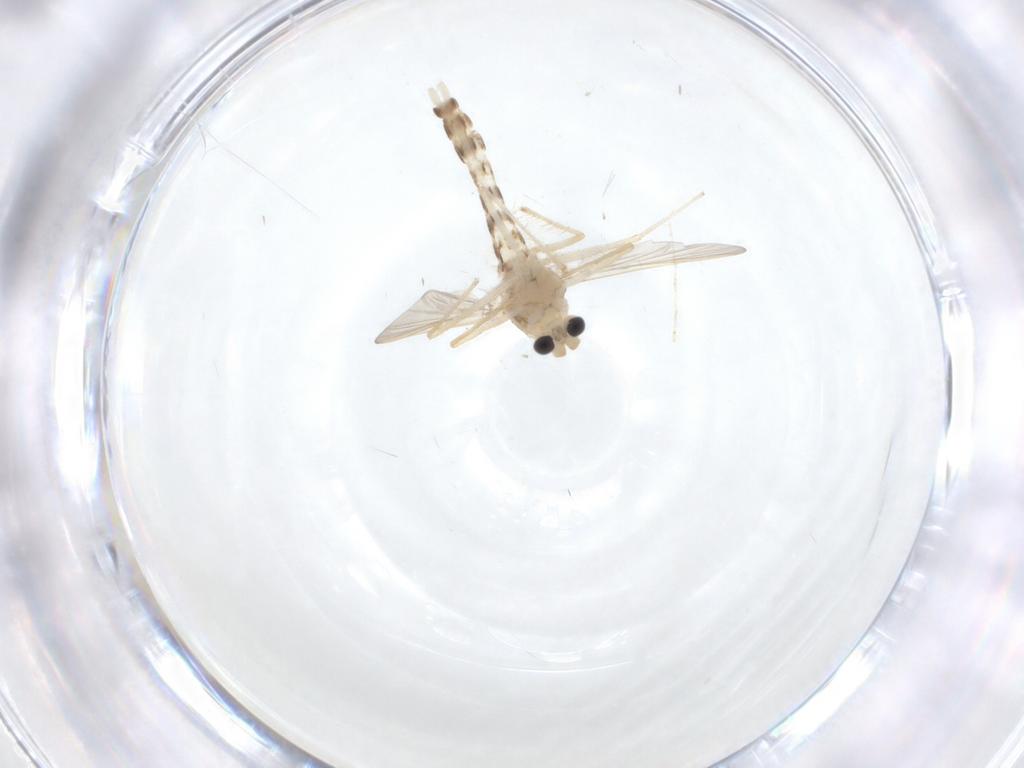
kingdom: Animalia
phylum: Arthropoda
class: Insecta
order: Diptera
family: Chironomidae
